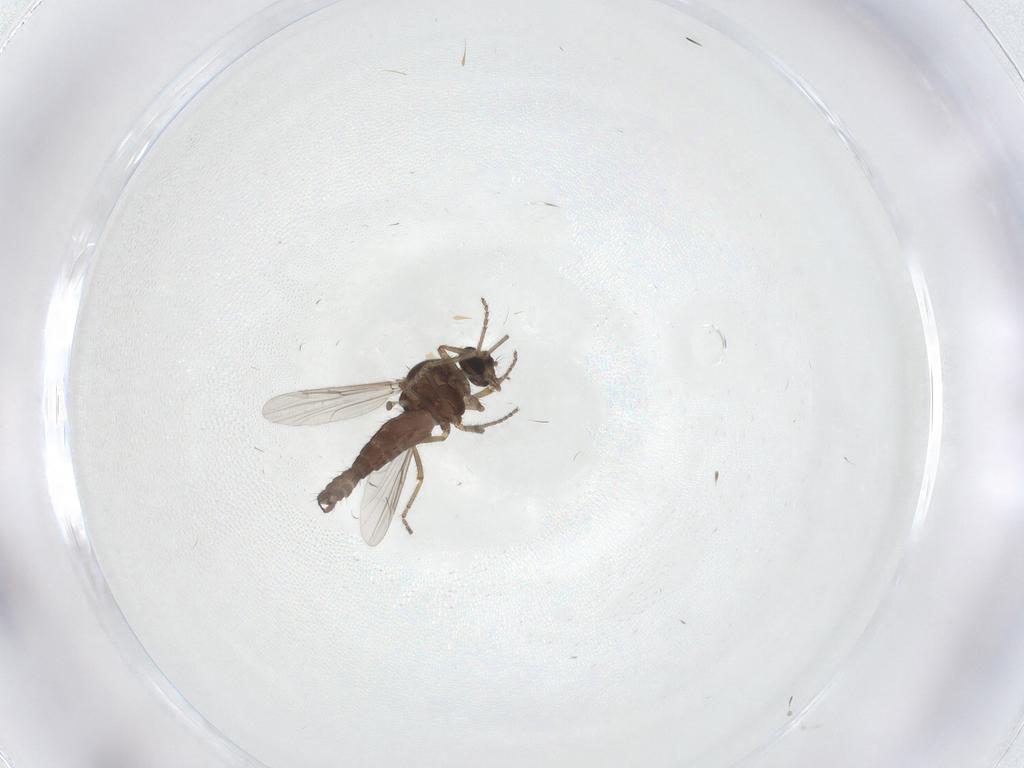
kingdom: Animalia
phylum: Arthropoda
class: Insecta
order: Diptera
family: Ceratopogonidae
